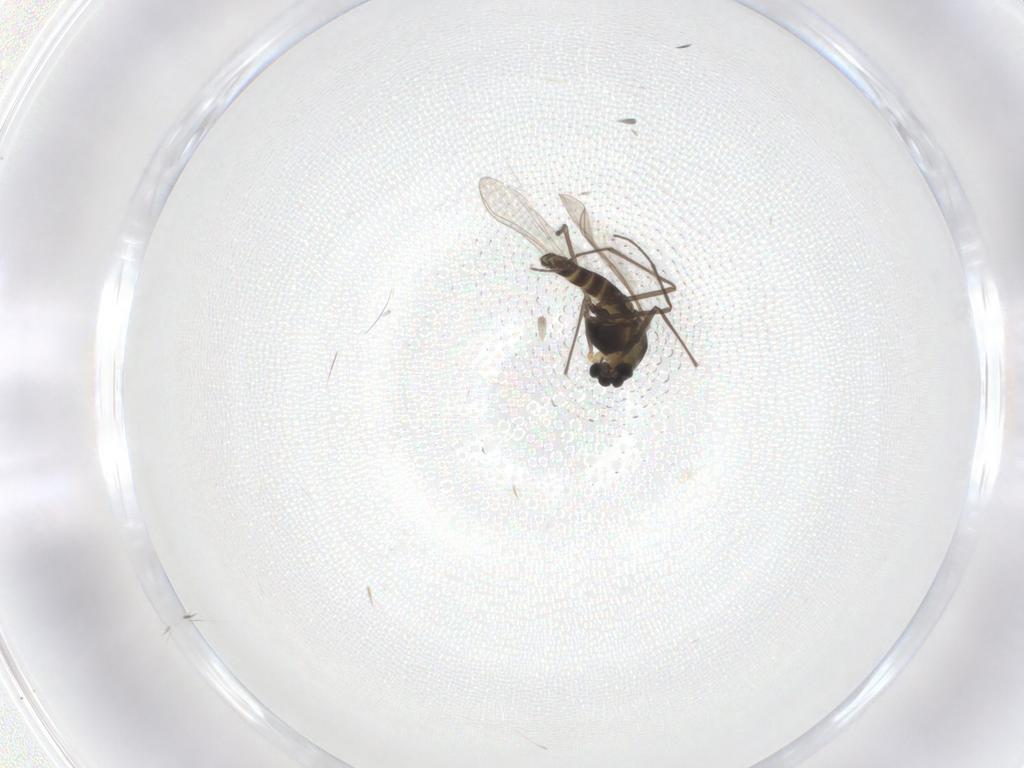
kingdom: Animalia
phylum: Arthropoda
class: Insecta
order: Diptera
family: Chironomidae
